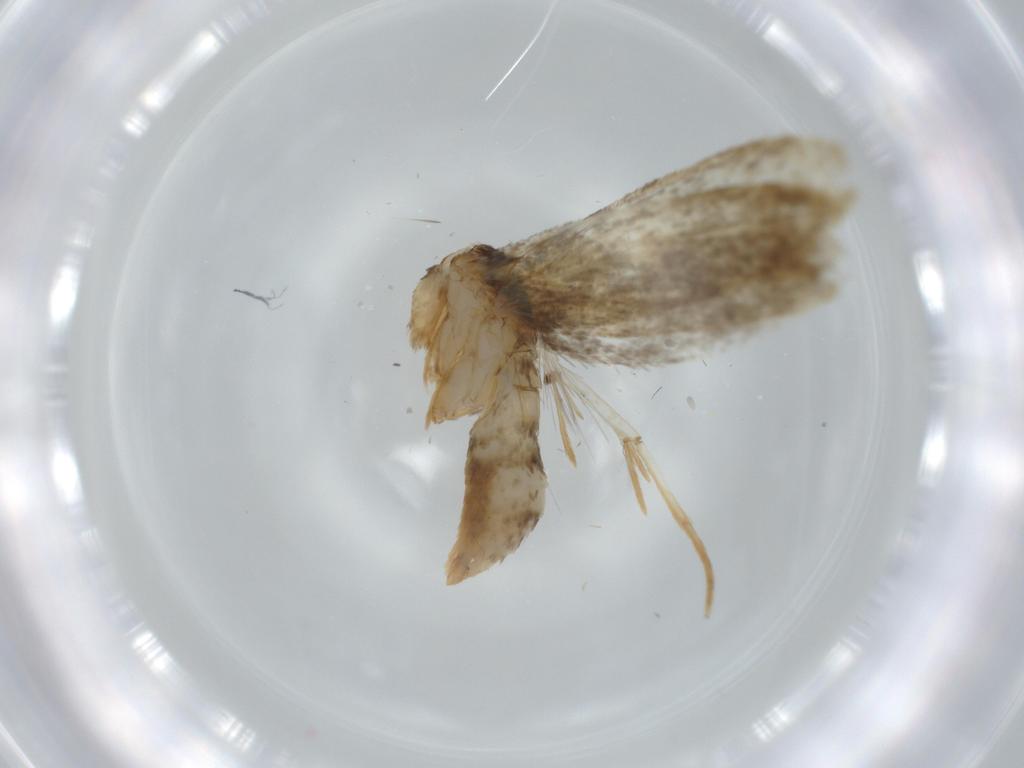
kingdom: Animalia
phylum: Arthropoda
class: Insecta
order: Lepidoptera
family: Tineidae
